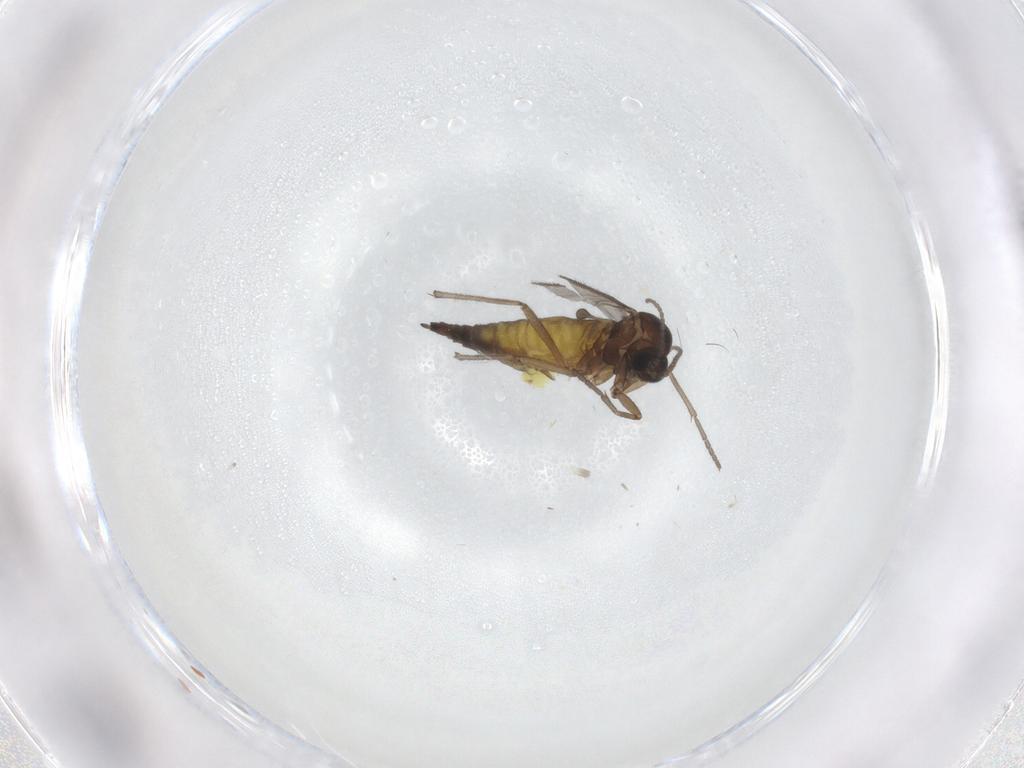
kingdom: Animalia
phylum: Arthropoda
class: Insecta
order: Diptera
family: Sciaridae
